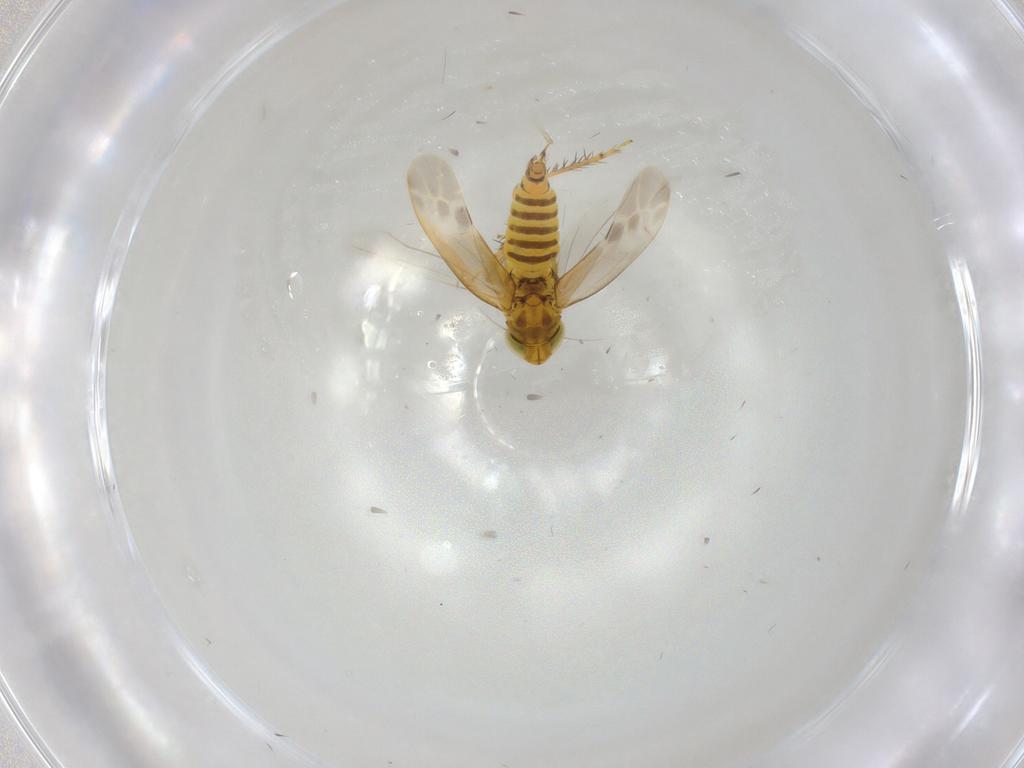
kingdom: Animalia
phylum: Arthropoda
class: Insecta
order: Hemiptera
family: Cicadellidae
